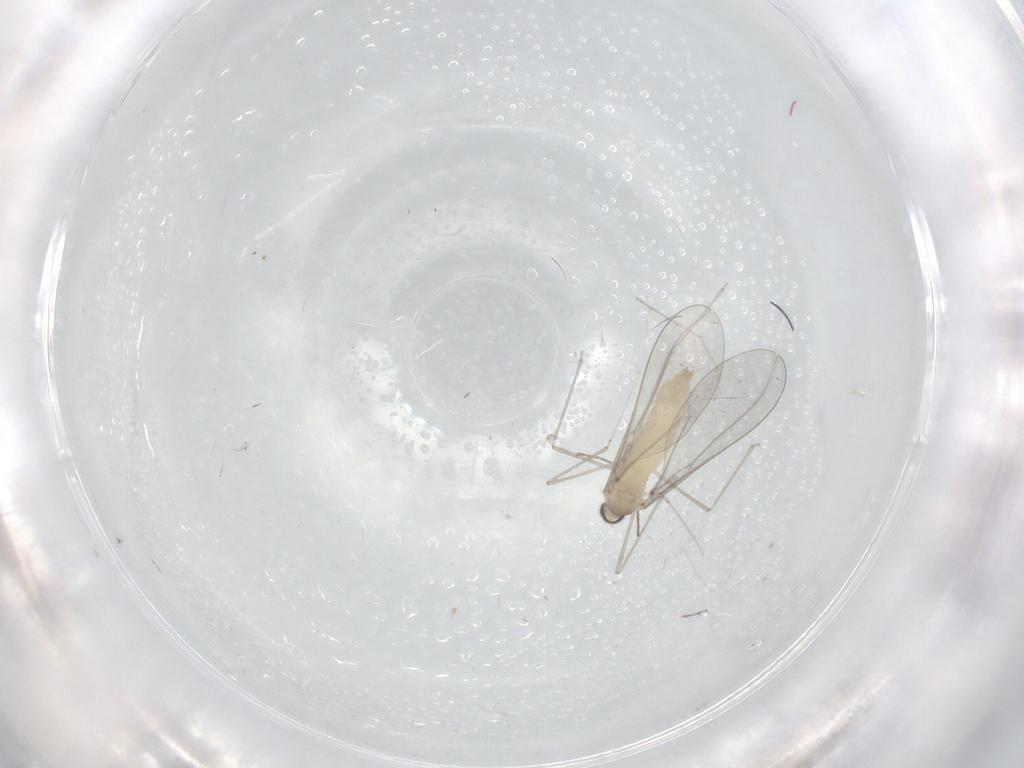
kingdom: Animalia
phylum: Arthropoda
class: Insecta
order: Diptera
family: Cecidomyiidae
